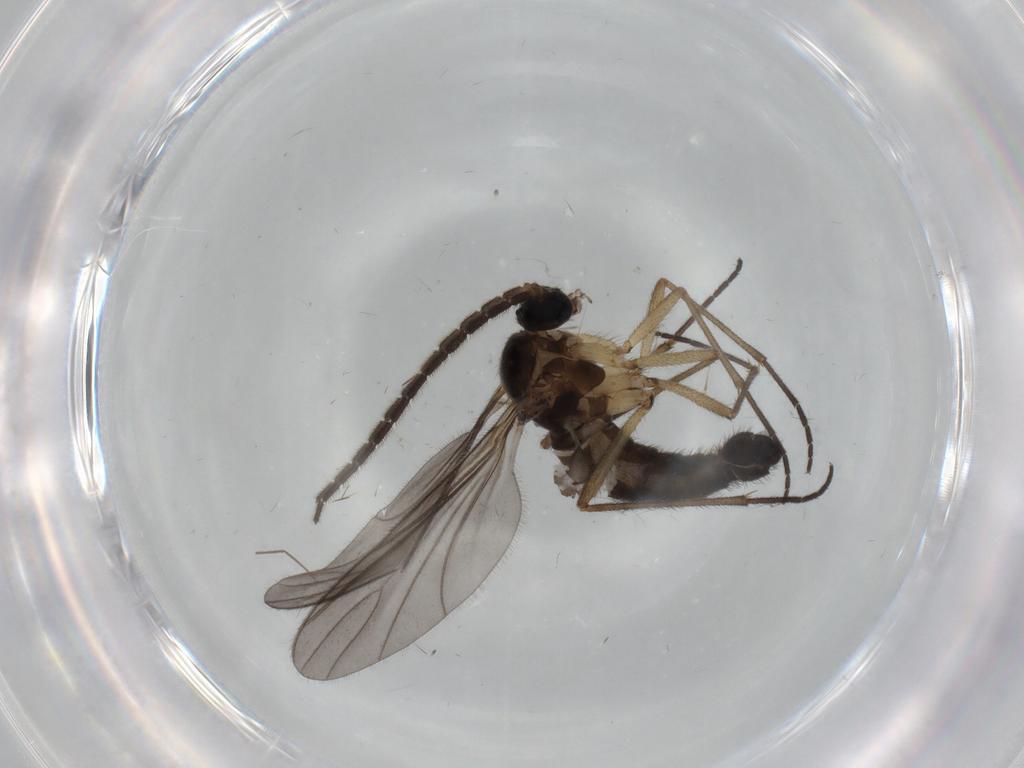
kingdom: Animalia
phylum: Arthropoda
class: Insecta
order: Diptera
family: Sciaridae
